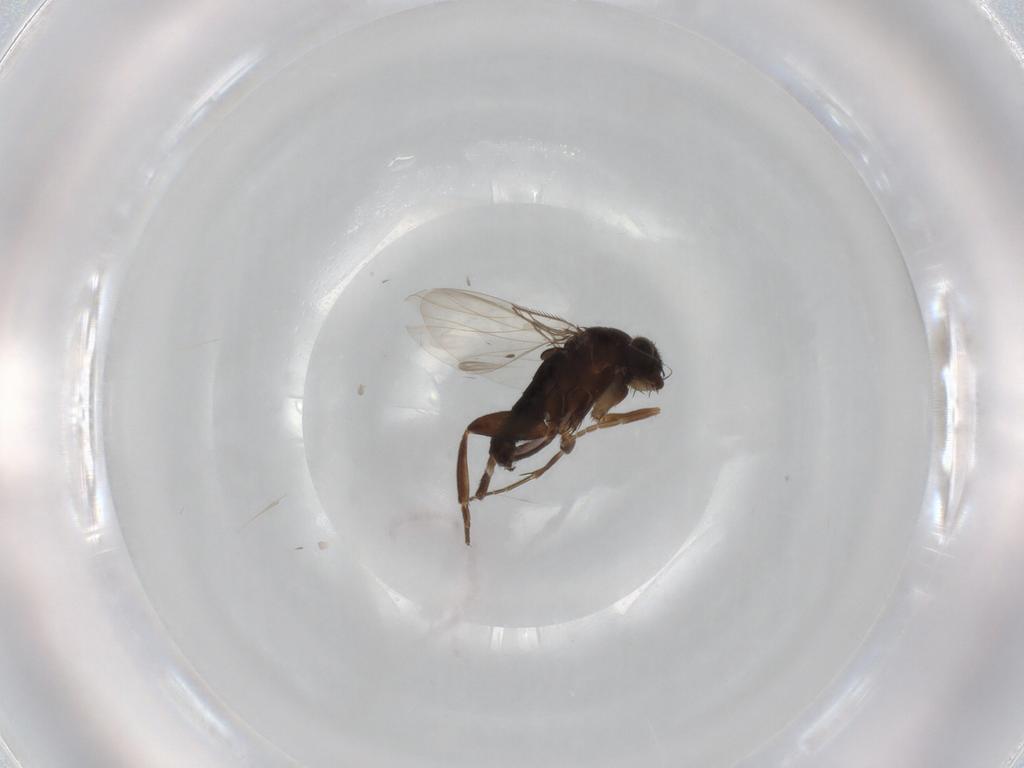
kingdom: Animalia
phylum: Arthropoda
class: Insecta
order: Diptera
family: Phoridae
